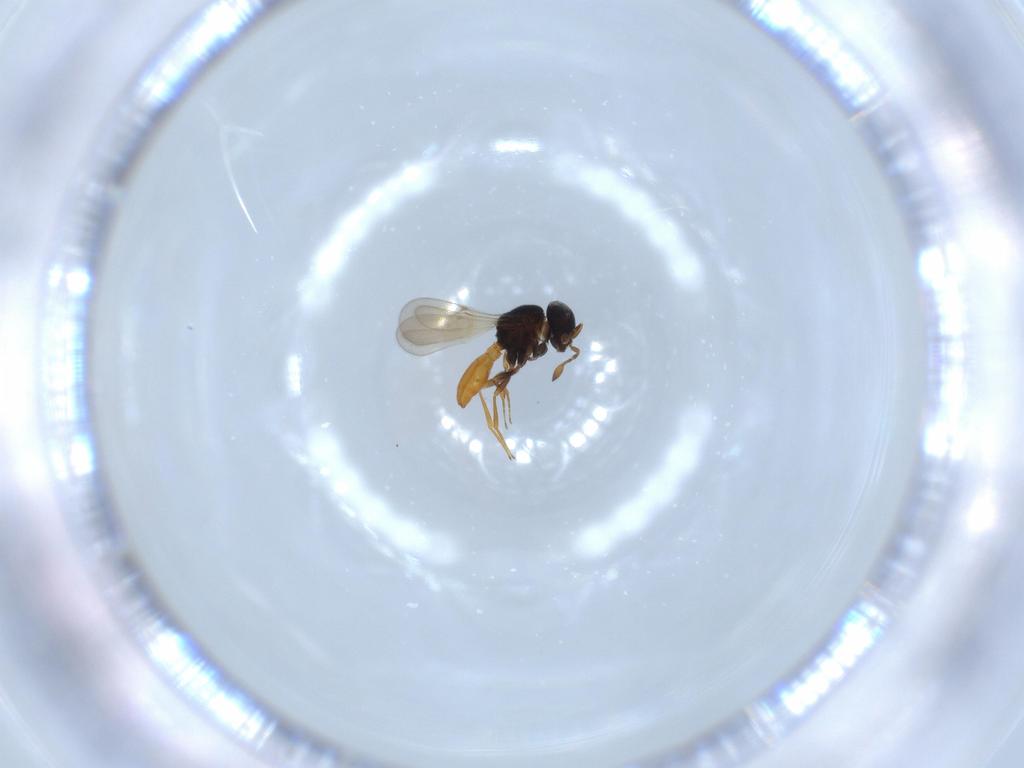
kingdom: Animalia
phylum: Arthropoda
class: Insecta
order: Hymenoptera
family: Scelionidae
